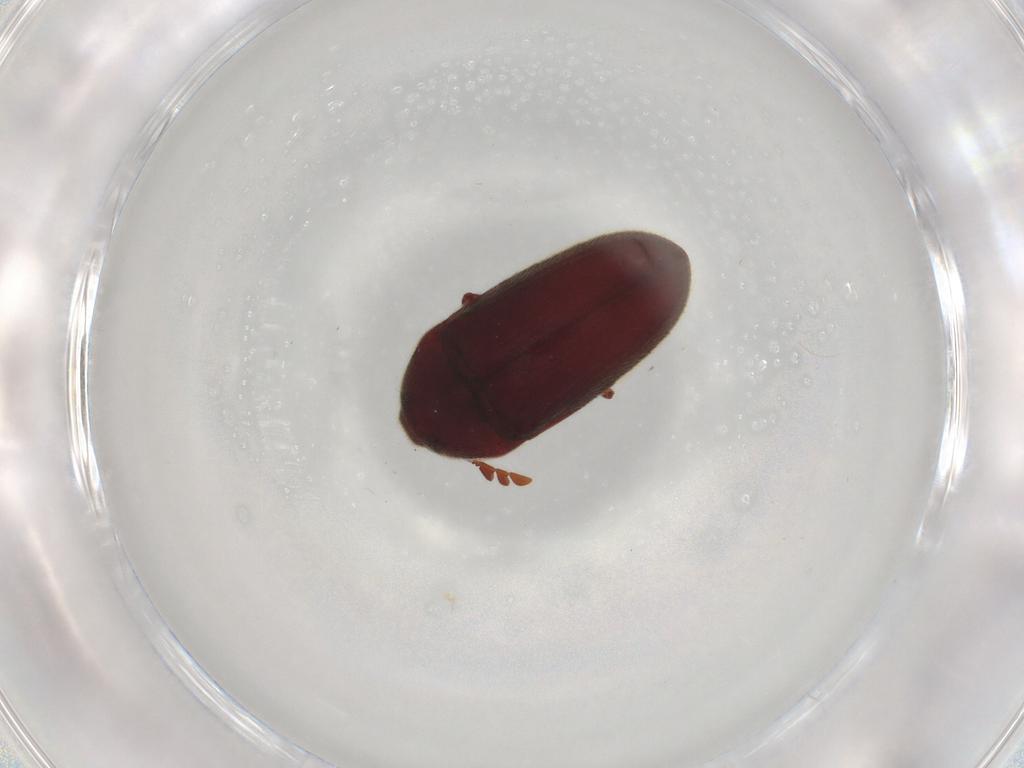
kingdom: Animalia
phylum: Arthropoda
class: Insecta
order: Coleoptera
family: Throscidae
